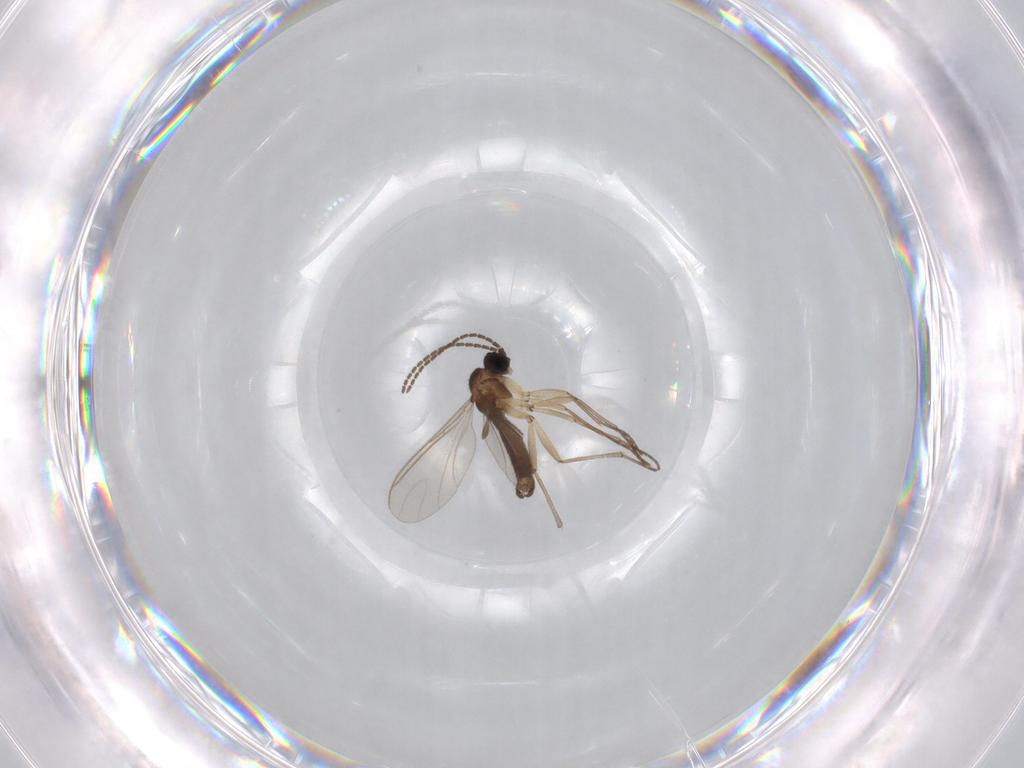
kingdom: Animalia
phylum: Arthropoda
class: Insecta
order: Diptera
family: Sciaridae
